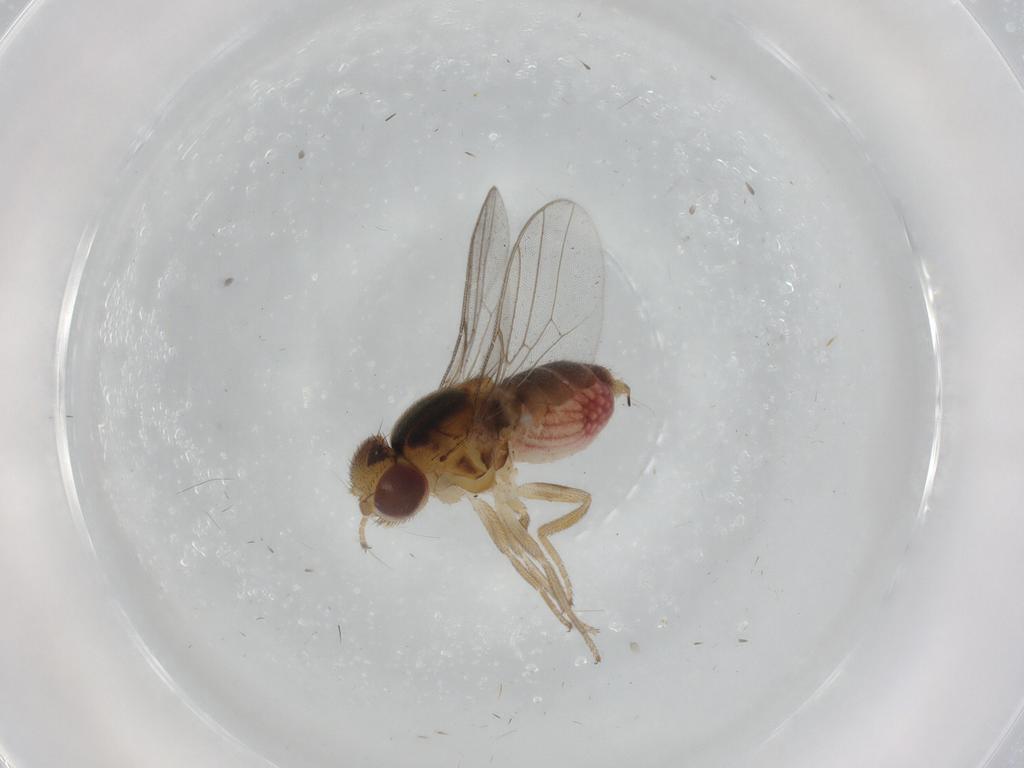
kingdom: Animalia
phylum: Arthropoda
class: Insecta
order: Diptera
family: Chloropidae
